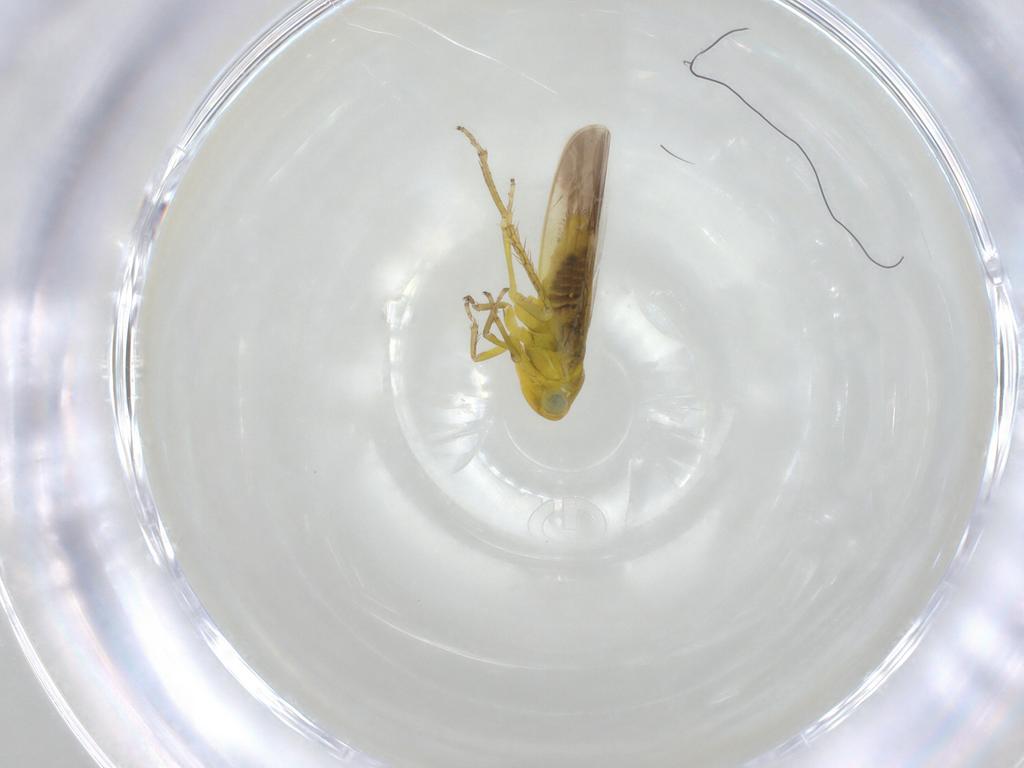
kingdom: Animalia
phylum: Arthropoda
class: Insecta
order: Hemiptera
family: Cicadellidae
